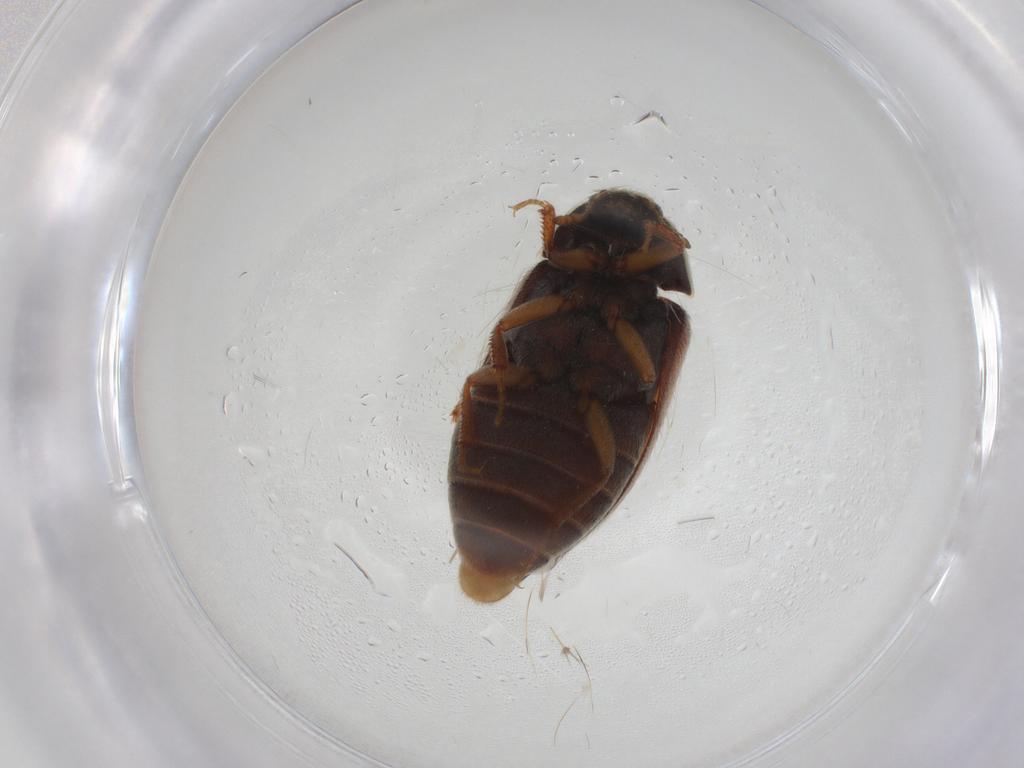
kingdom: Animalia
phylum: Arthropoda
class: Insecta
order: Coleoptera
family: Dermestidae
